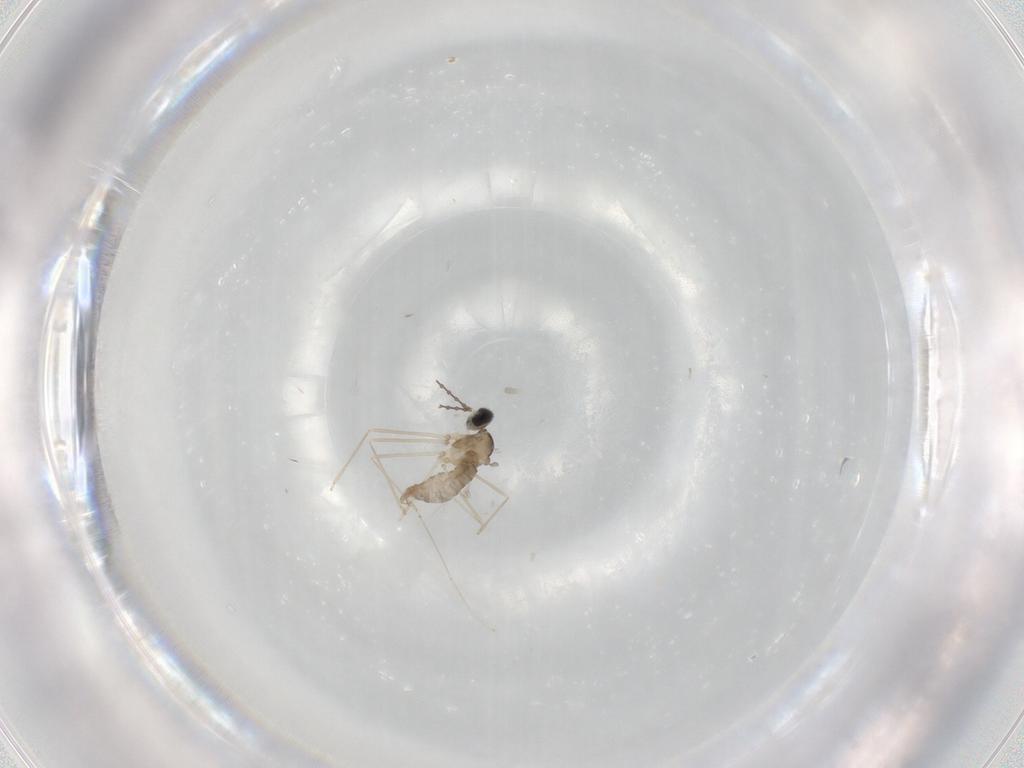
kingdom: Animalia
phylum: Arthropoda
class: Insecta
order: Diptera
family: Cecidomyiidae
